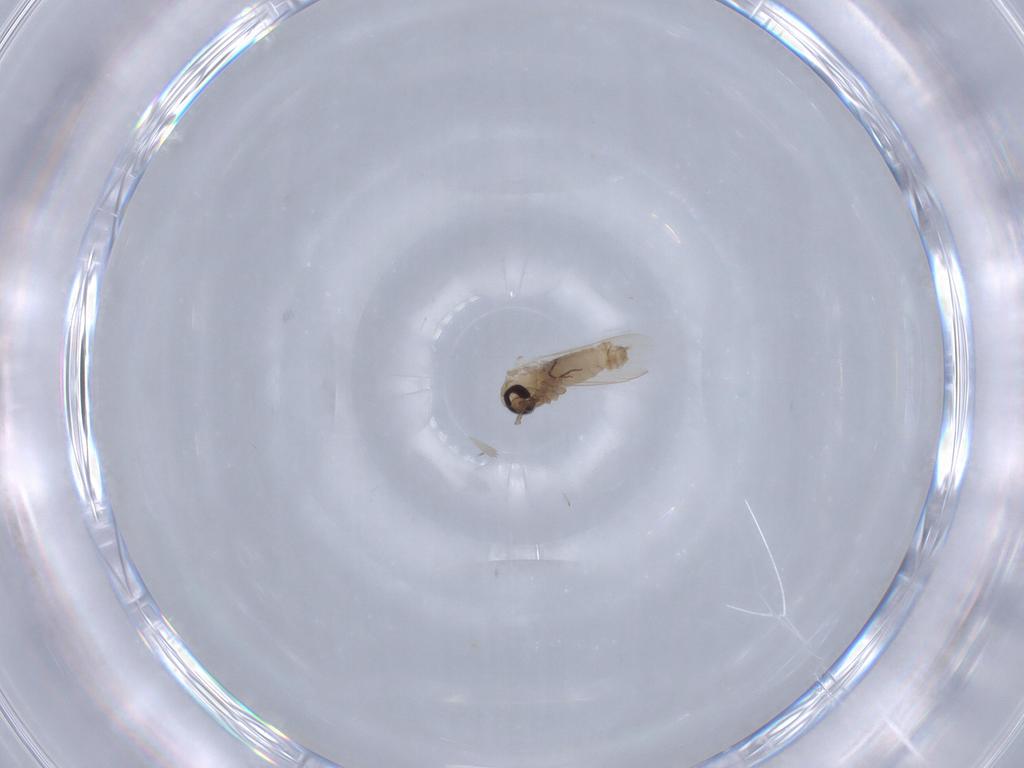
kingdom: Animalia
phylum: Arthropoda
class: Insecta
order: Diptera
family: Psychodidae
